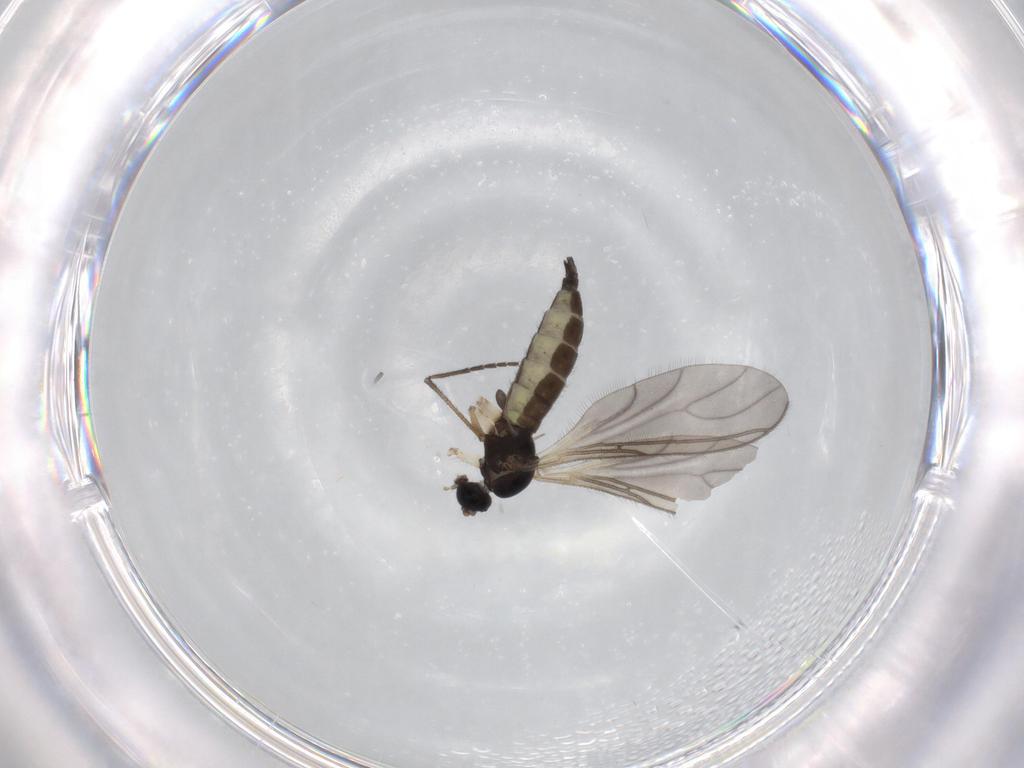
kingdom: Animalia
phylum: Arthropoda
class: Insecta
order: Diptera
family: Sciaridae
